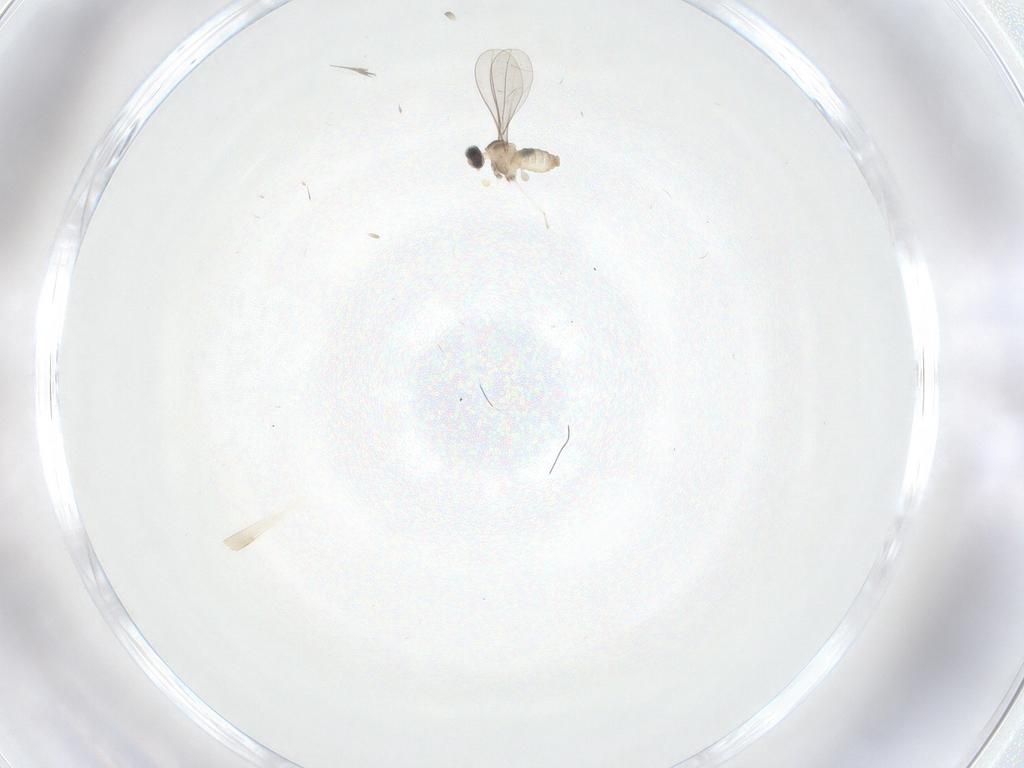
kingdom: Animalia
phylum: Arthropoda
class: Insecta
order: Diptera
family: Cecidomyiidae
